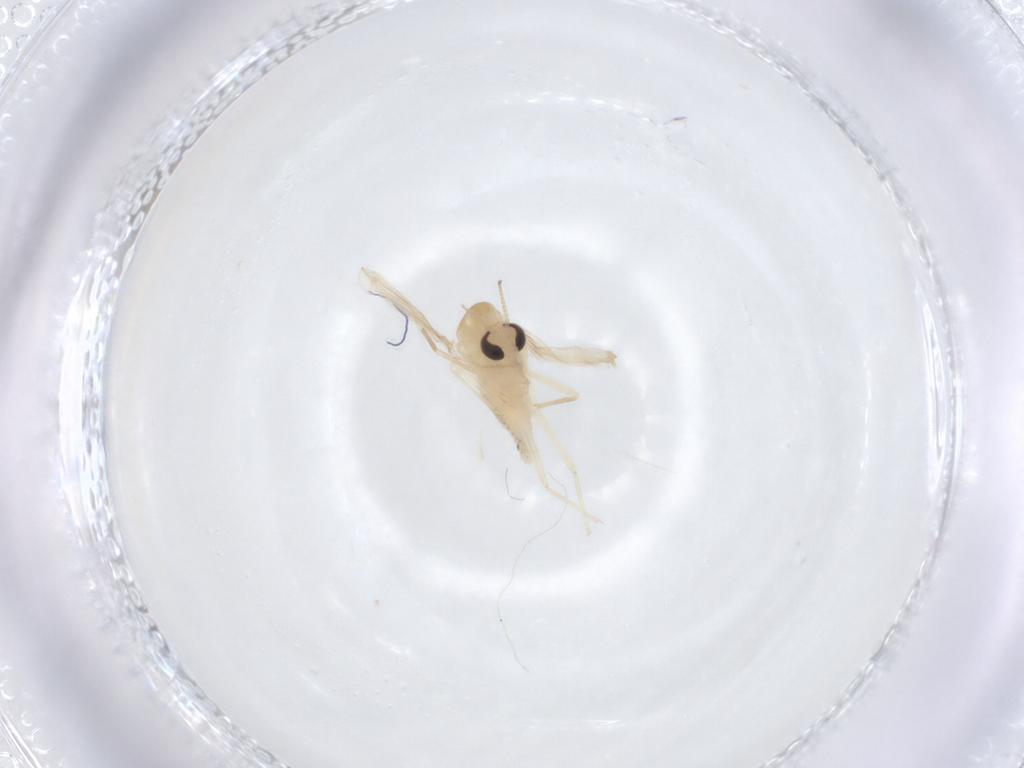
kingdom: Animalia
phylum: Arthropoda
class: Insecta
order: Diptera
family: Chironomidae
